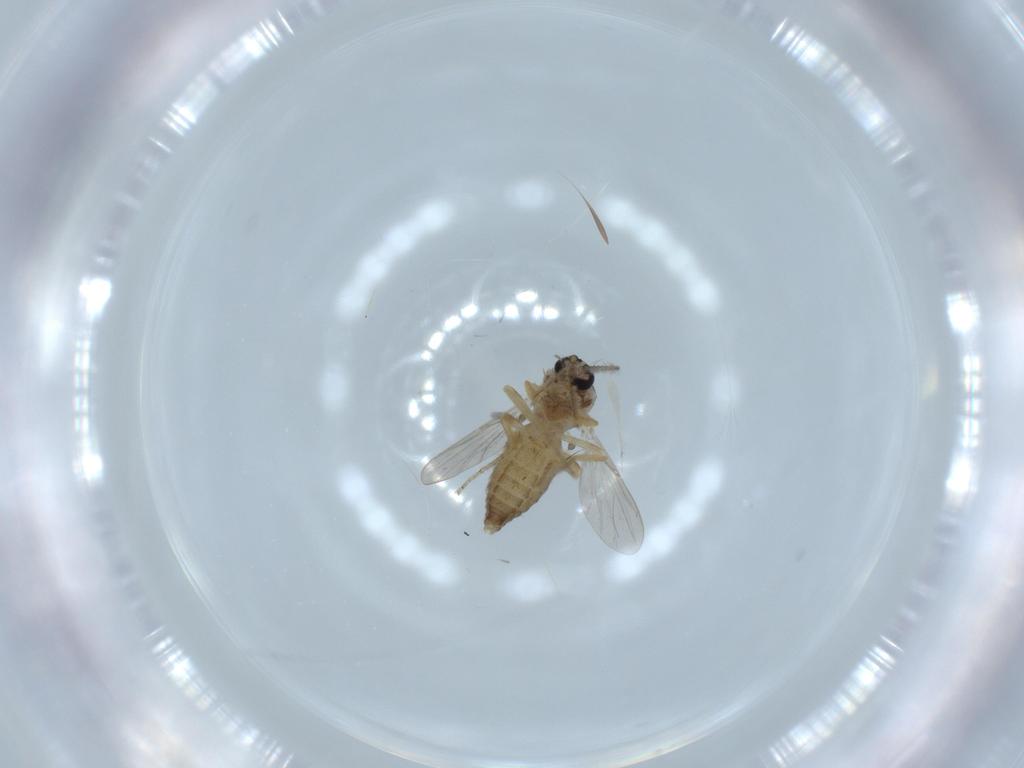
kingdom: Animalia
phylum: Arthropoda
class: Insecta
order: Diptera
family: Ceratopogonidae
